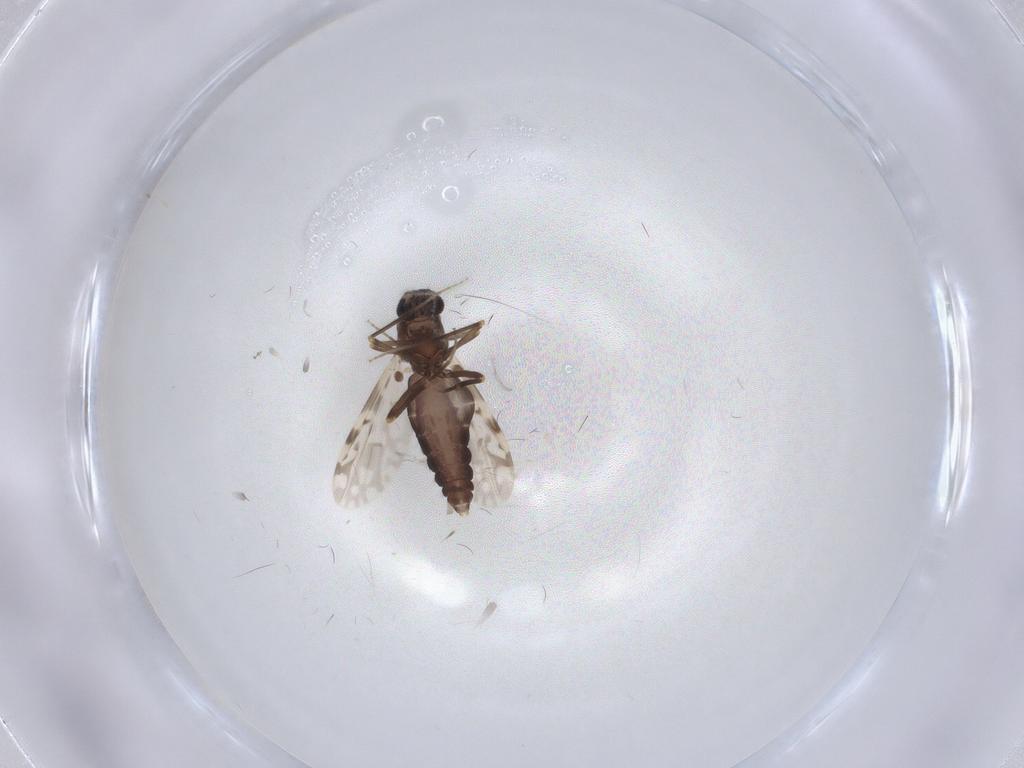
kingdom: Animalia
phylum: Arthropoda
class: Insecta
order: Diptera
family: Ceratopogonidae
